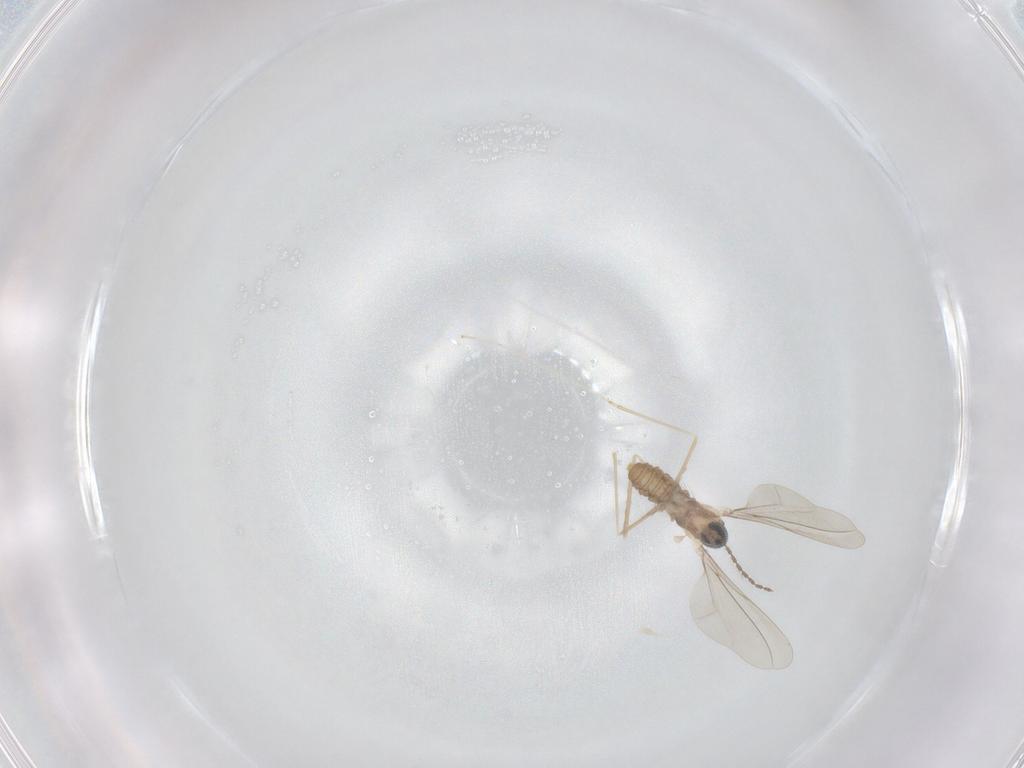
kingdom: Animalia
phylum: Arthropoda
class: Insecta
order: Diptera
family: Cecidomyiidae
